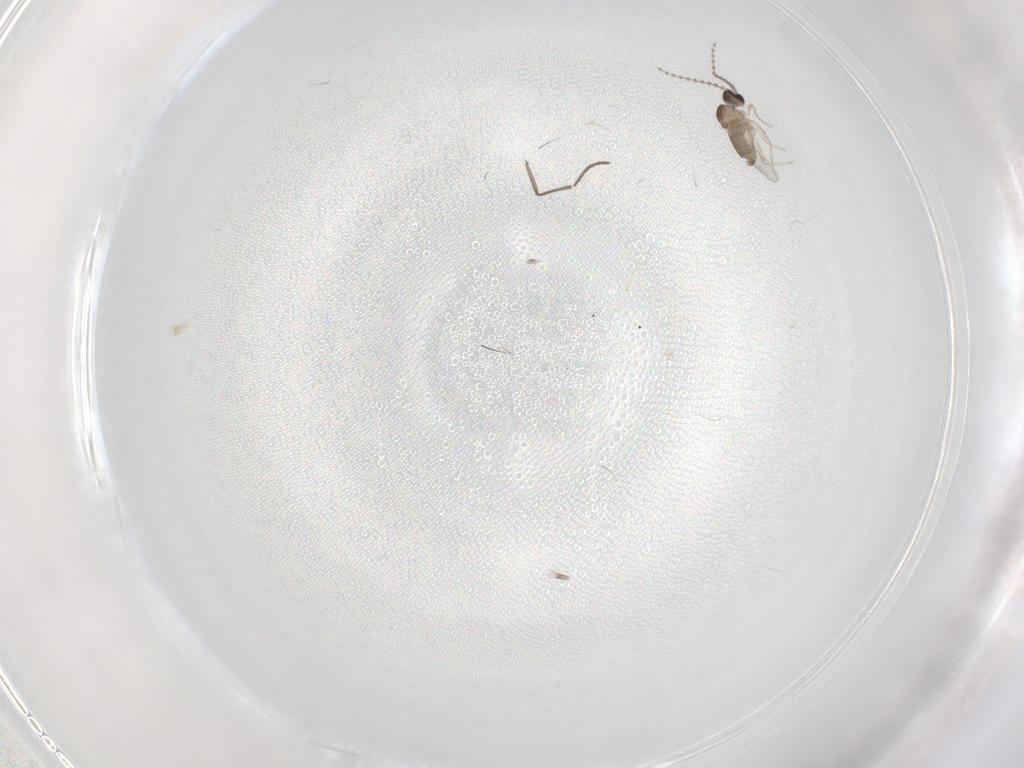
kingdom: Animalia
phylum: Arthropoda
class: Insecta
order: Diptera
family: Cecidomyiidae
